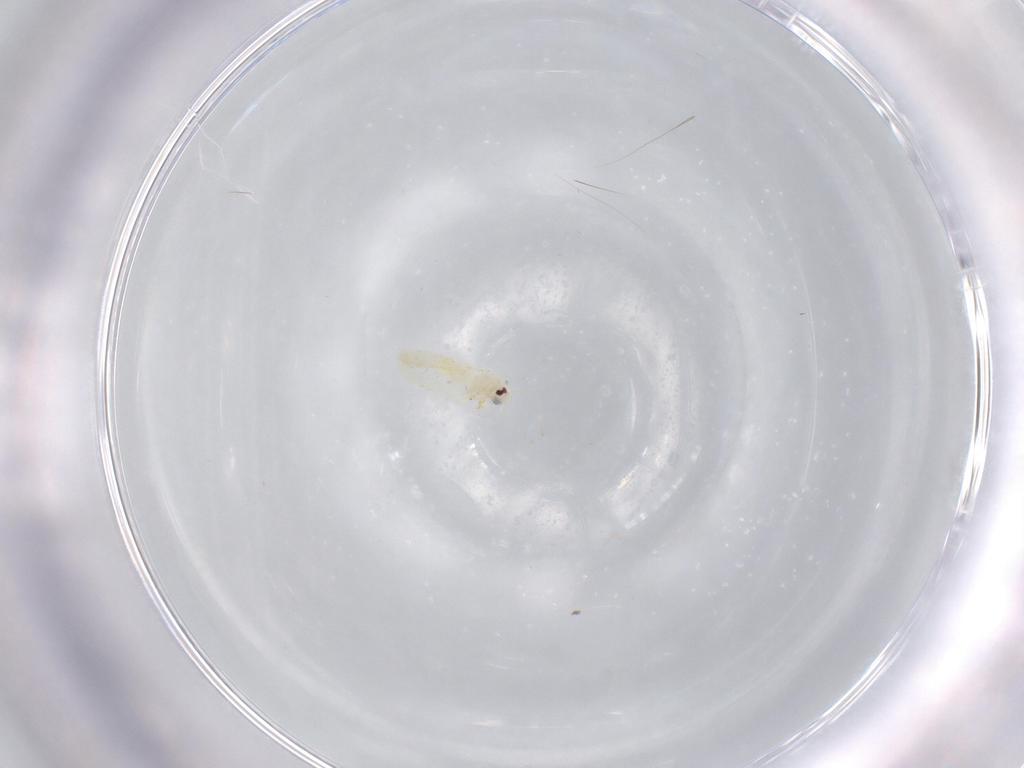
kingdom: Animalia
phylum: Arthropoda
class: Insecta
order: Hemiptera
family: Aleyrodidae
